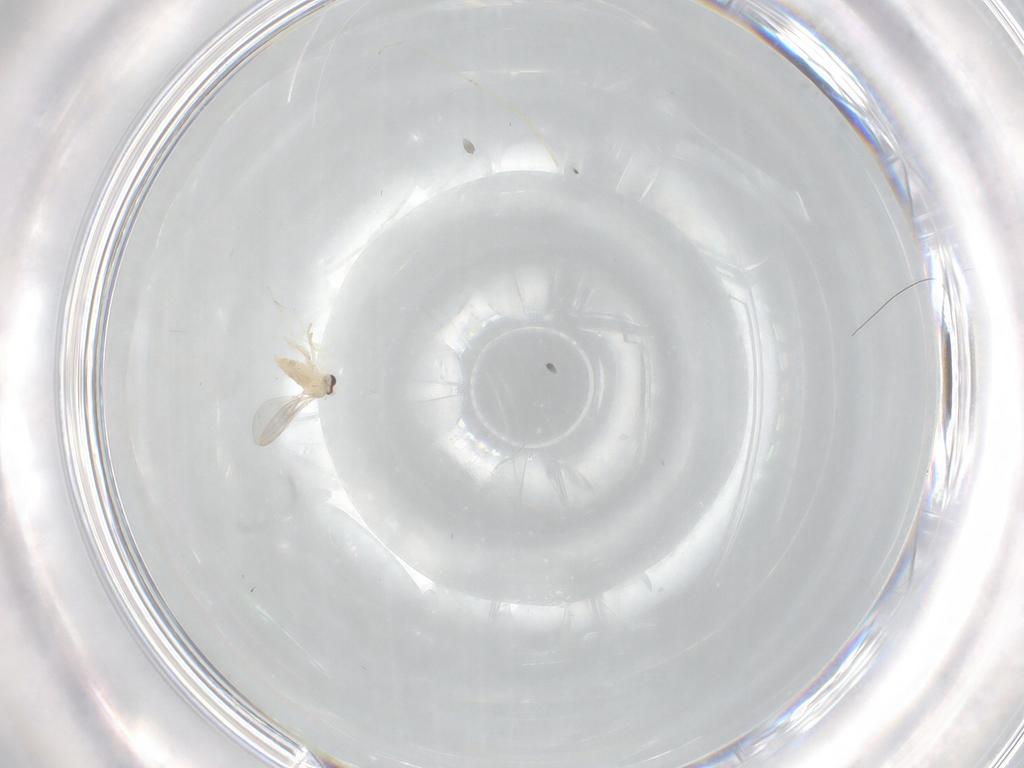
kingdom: Animalia
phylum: Arthropoda
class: Insecta
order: Diptera
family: Cecidomyiidae
